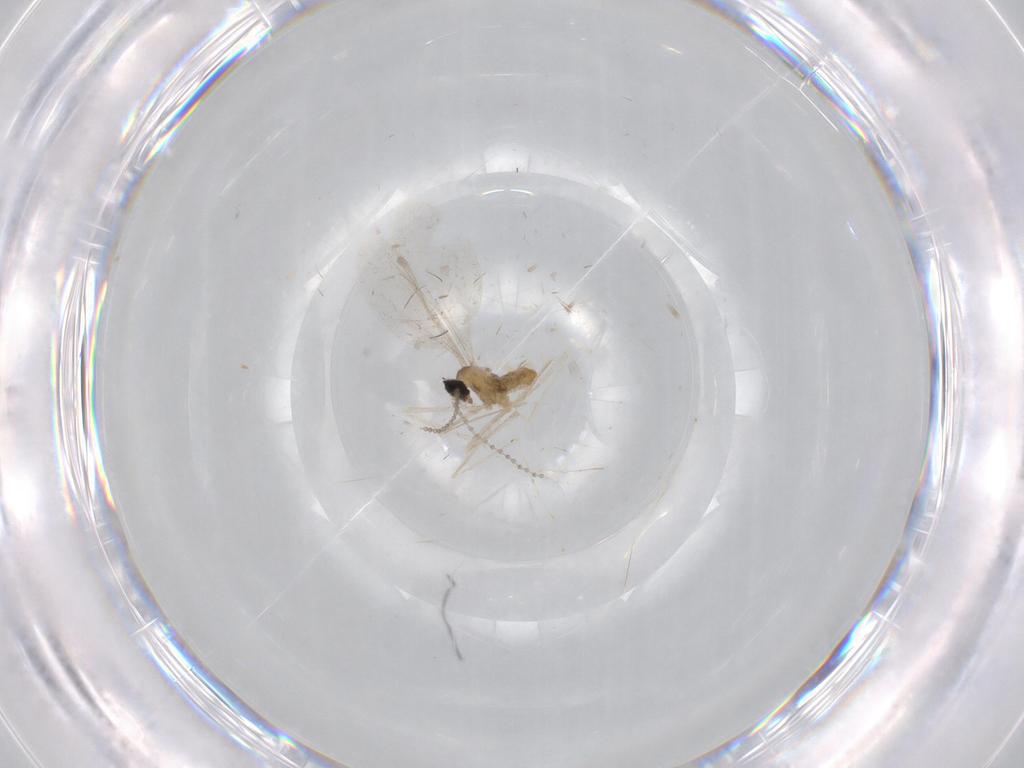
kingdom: Animalia
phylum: Arthropoda
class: Insecta
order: Diptera
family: Cecidomyiidae
